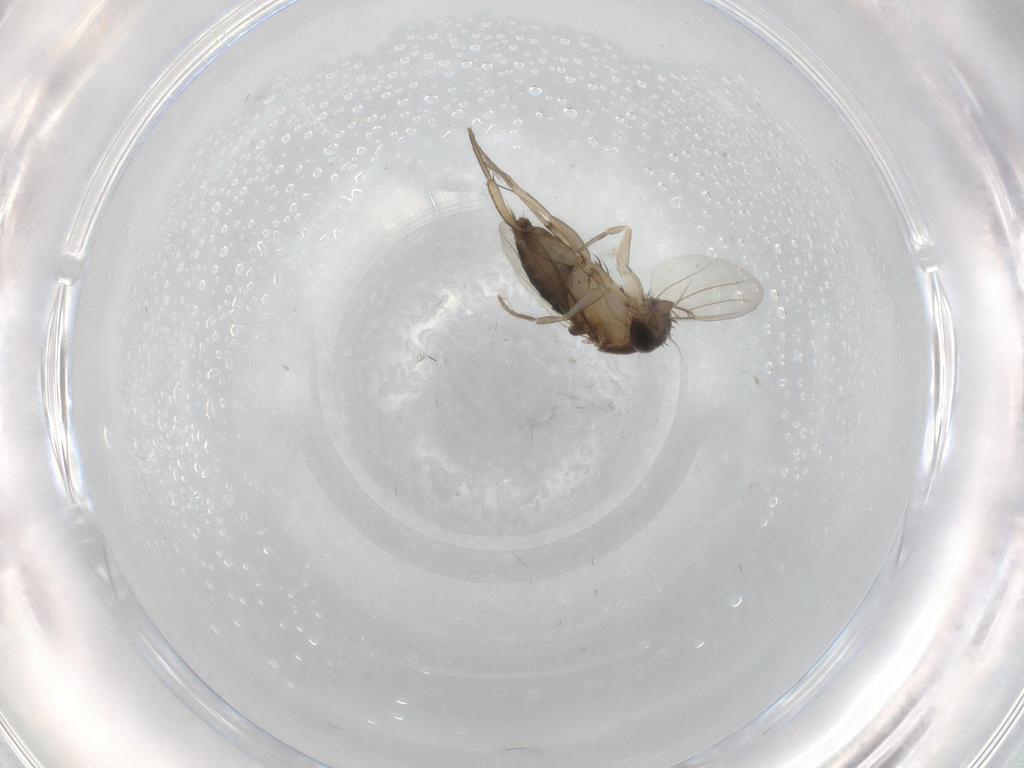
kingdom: Animalia
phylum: Arthropoda
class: Insecta
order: Diptera
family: Phoridae
